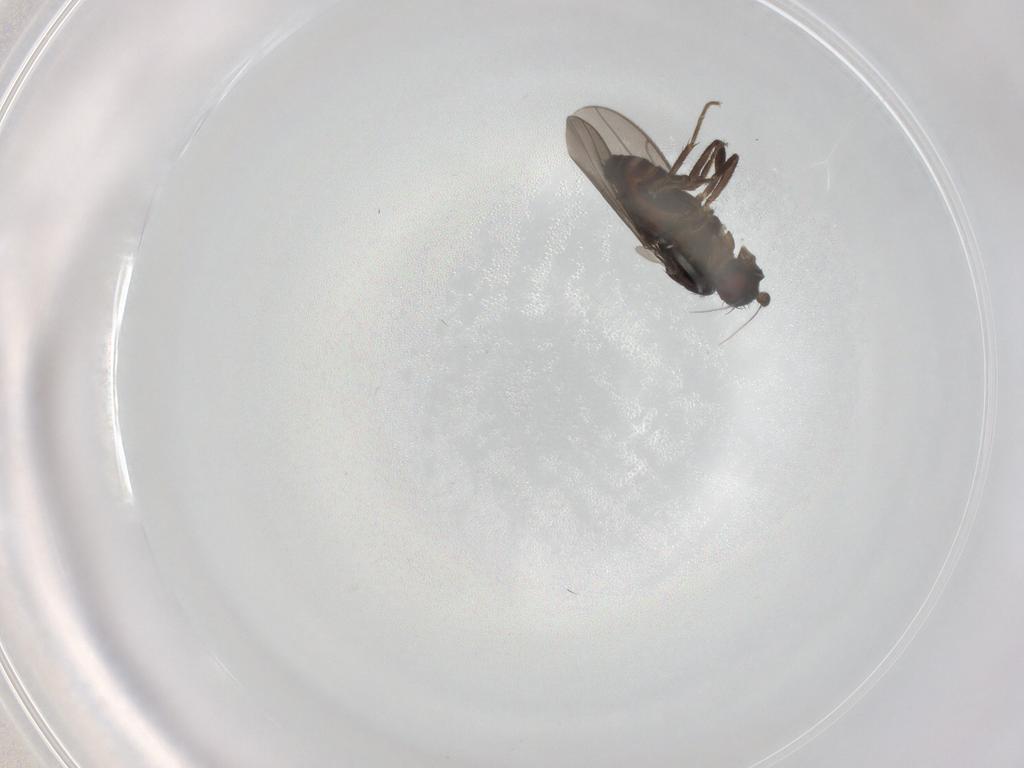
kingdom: Animalia
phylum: Arthropoda
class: Insecta
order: Diptera
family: Sphaeroceridae
